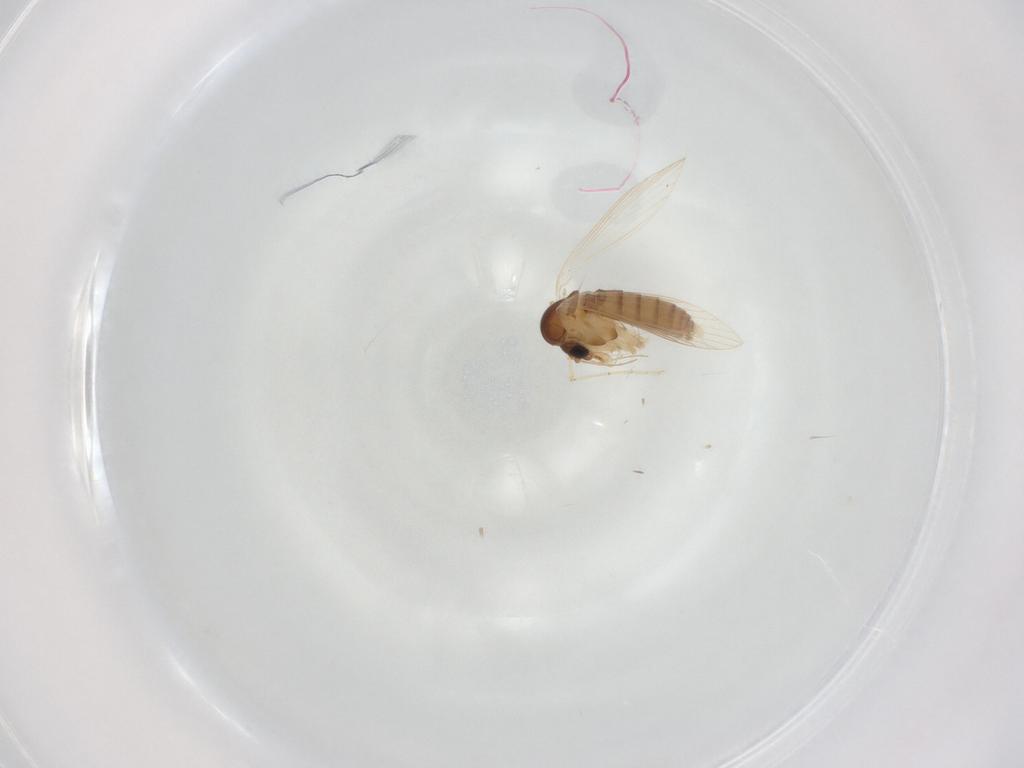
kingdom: Animalia
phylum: Arthropoda
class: Insecta
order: Diptera
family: Psychodidae
